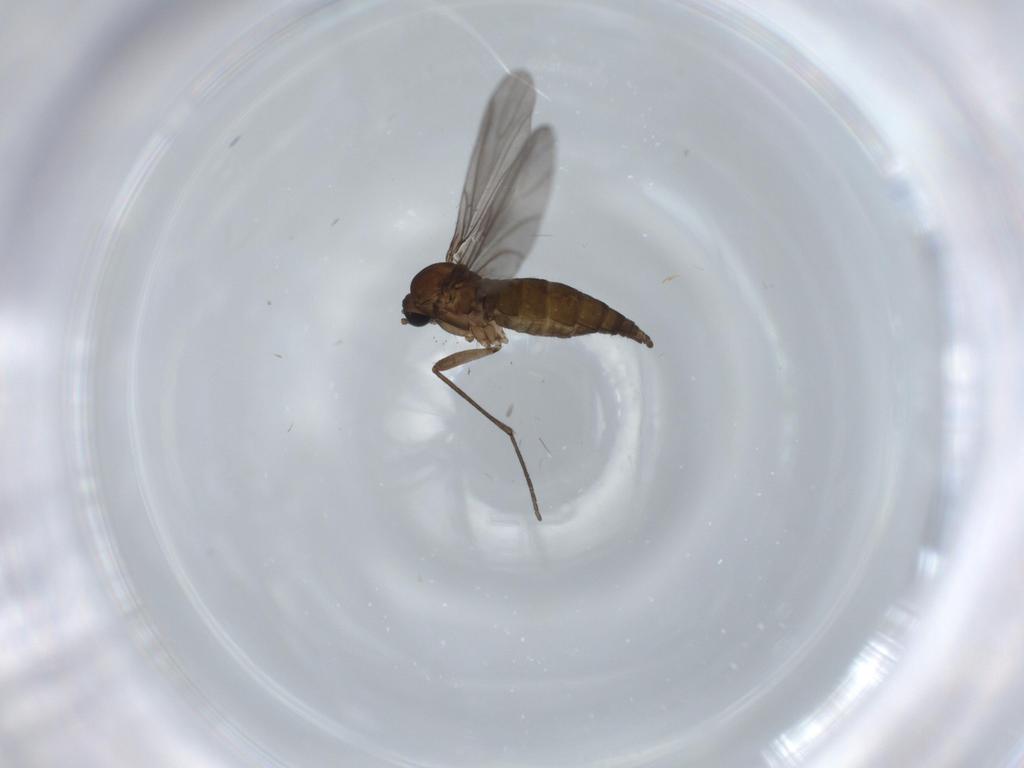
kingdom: Animalia
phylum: Arthropoda
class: Insecta
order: Diptera
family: Sciaridae
